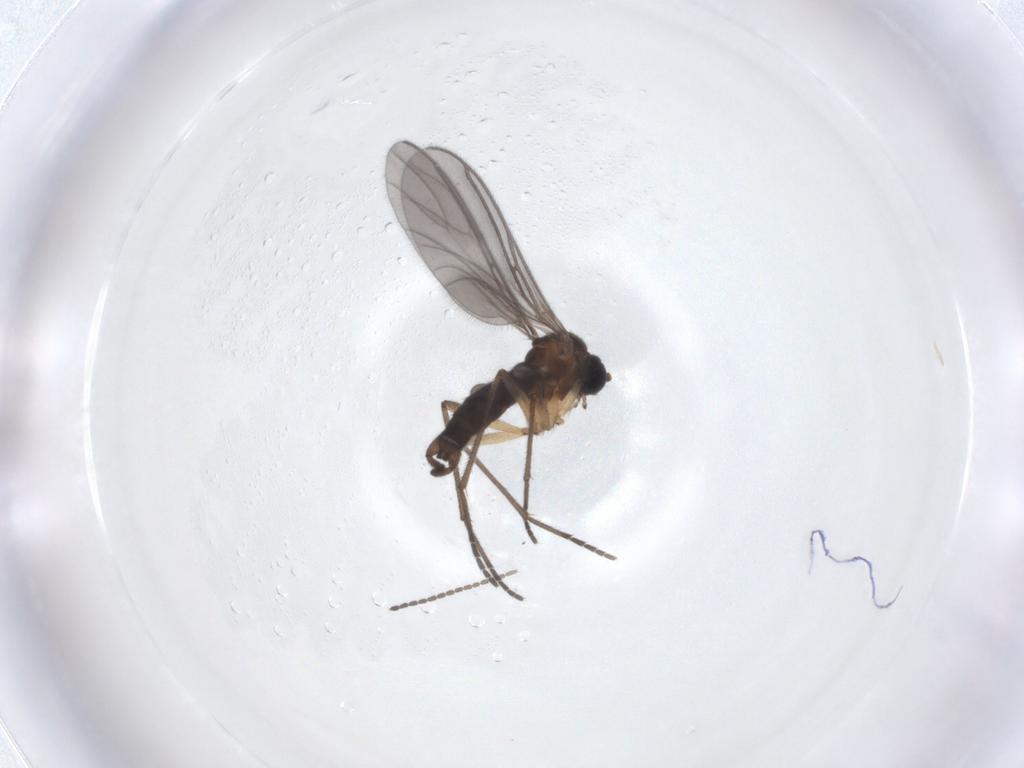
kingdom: Animalia
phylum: Arthropoda
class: Insecta
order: Diptera
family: Sciaridae
